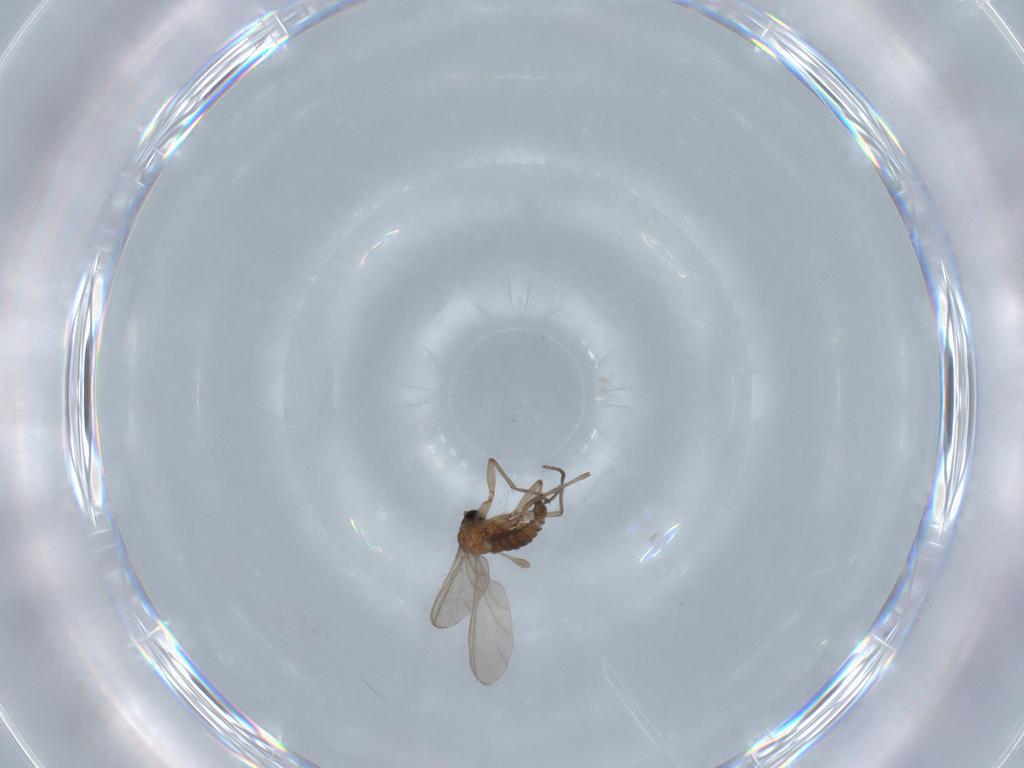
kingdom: Animalia
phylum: Arthropoda
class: Insecta
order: Diptera
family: Sciaridae
